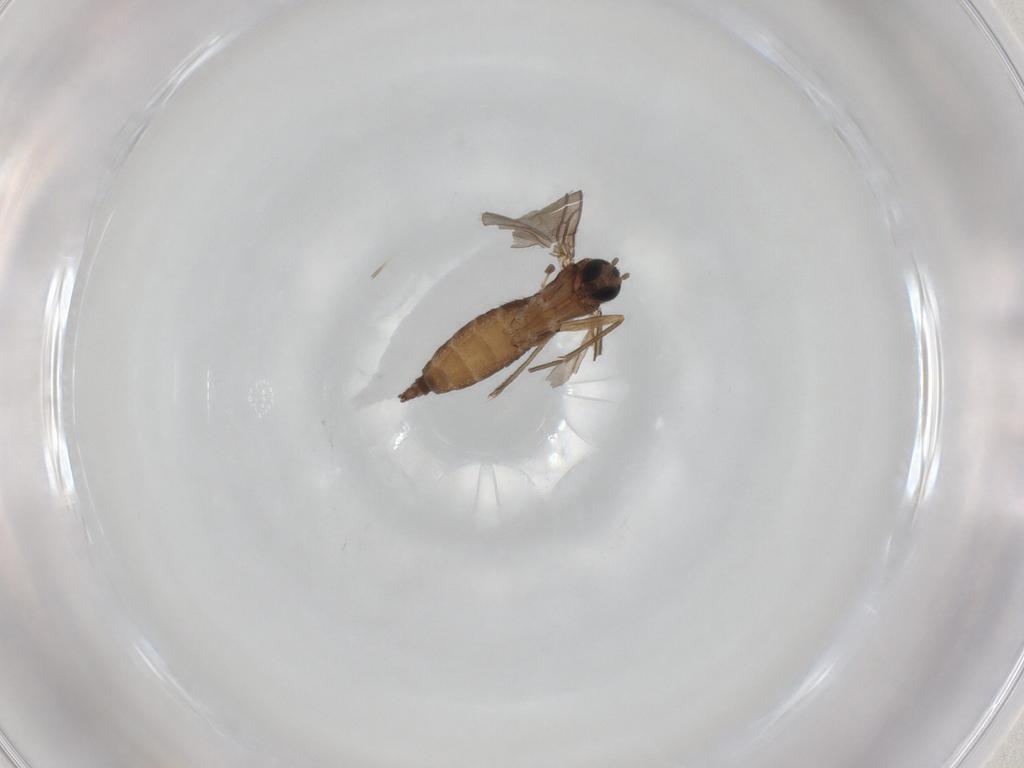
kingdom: Animalia
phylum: Arthropoda
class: Insecta
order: Diptera
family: Sciaridae
